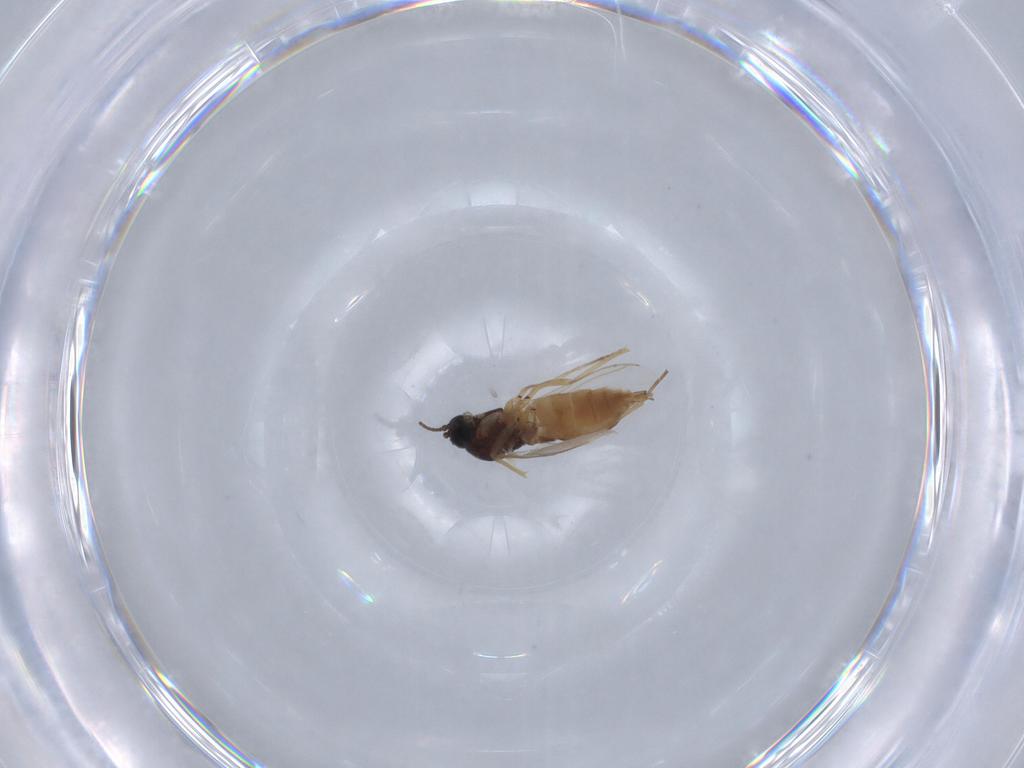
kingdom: Animalia
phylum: Arthropoda
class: Insecta
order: Diptera
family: Sciaridae
